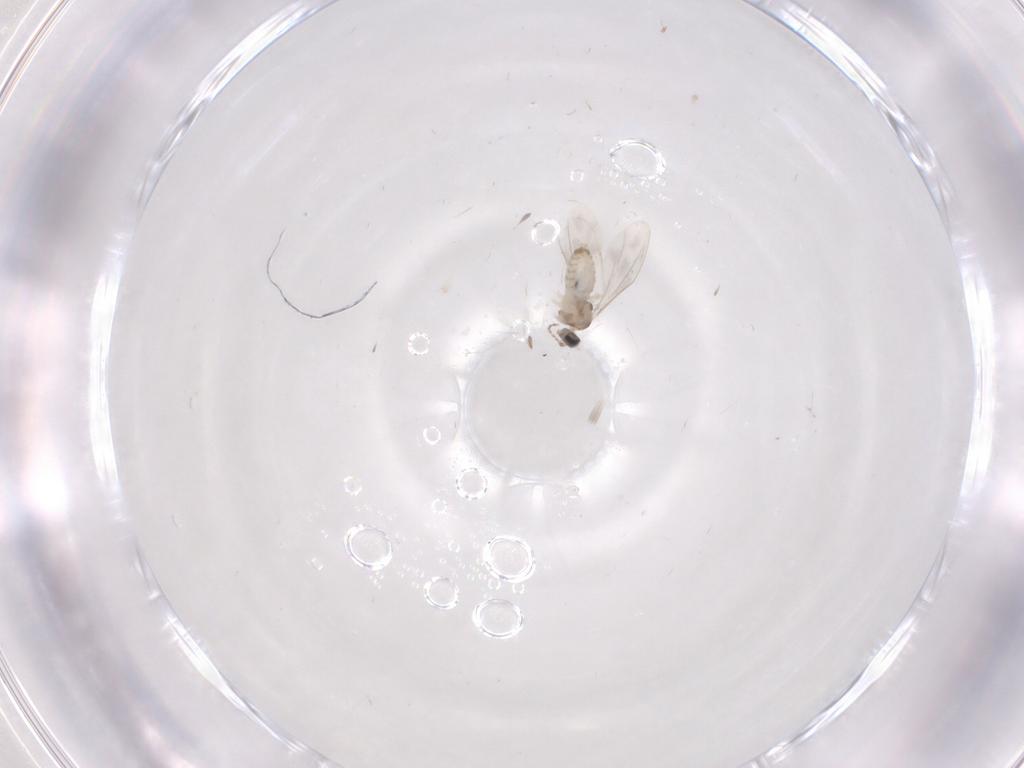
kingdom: Animalia
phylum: Arthropoda
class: Insecta
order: Diptera
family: Cecidomyiidae
